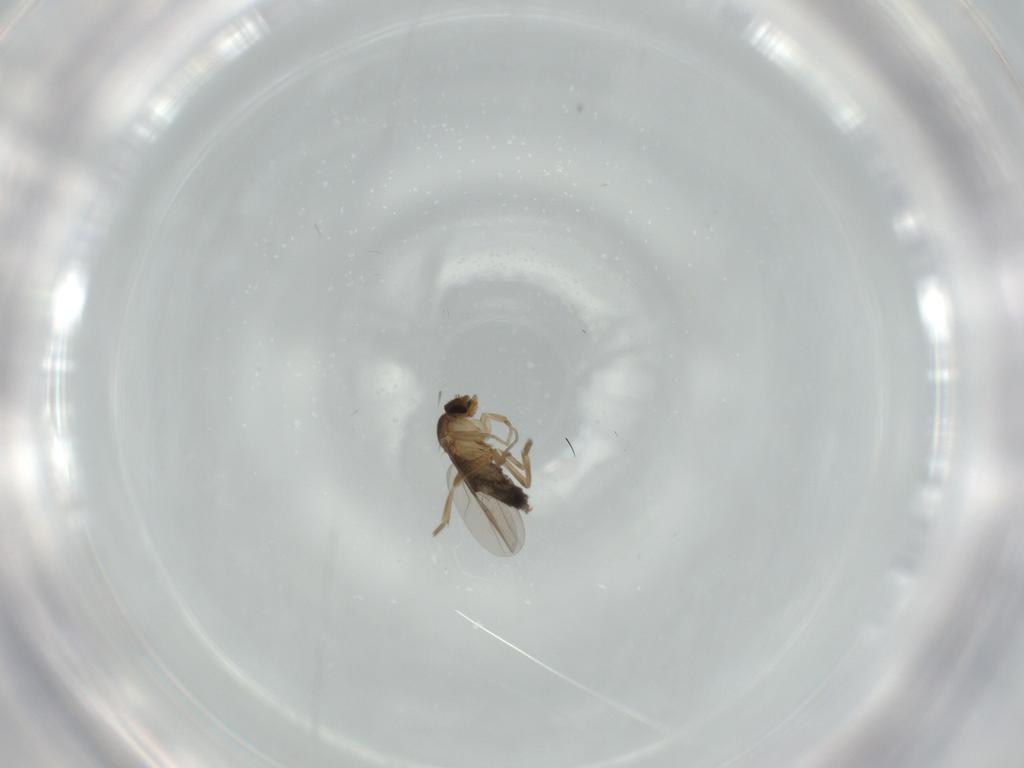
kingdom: Animalia
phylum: Arthropoda
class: Insecta
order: Diptera
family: Phoridae
